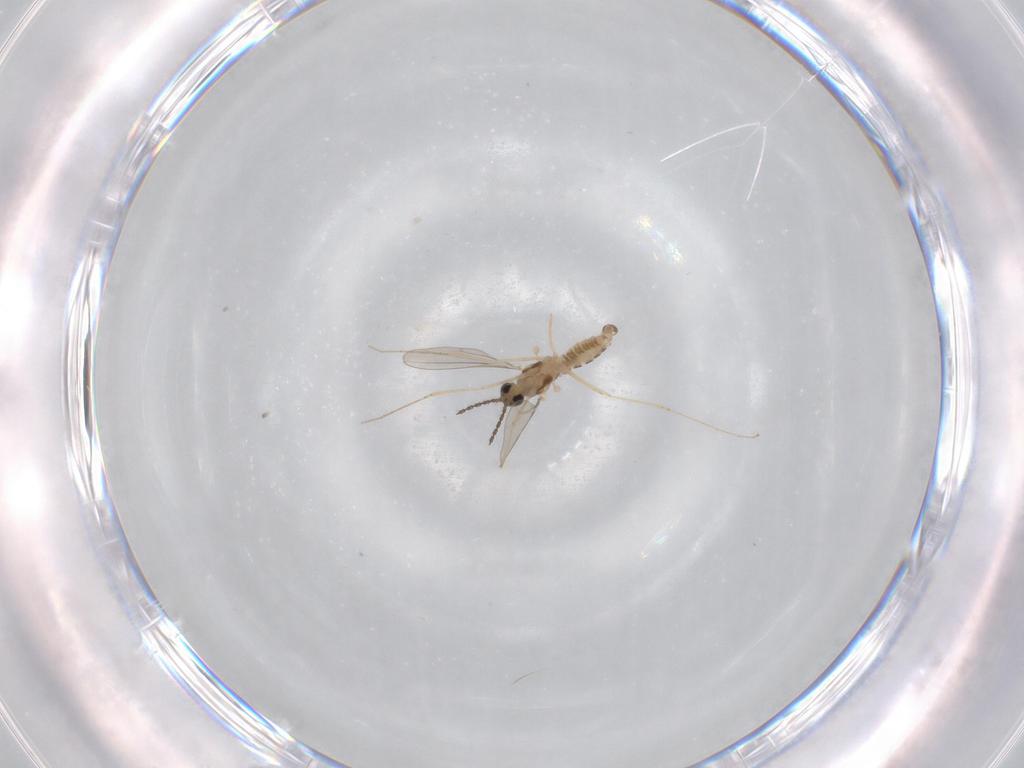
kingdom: Animalia
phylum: Arthropoda
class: Insecta
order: Diptera
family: Cecidomyiidae
